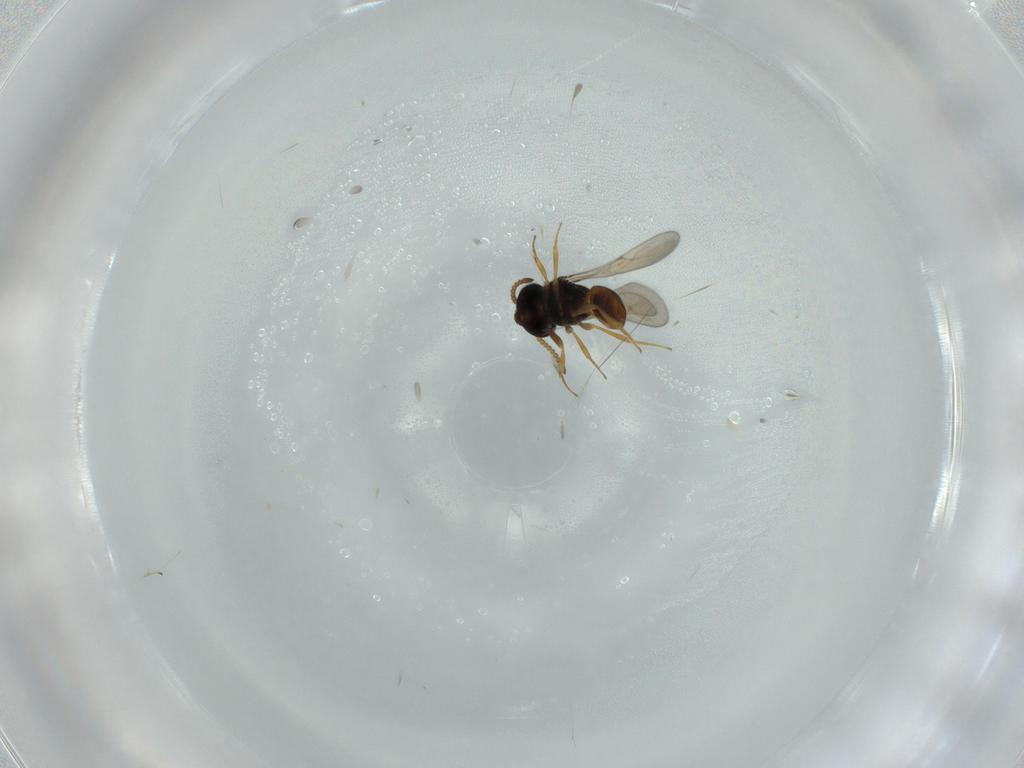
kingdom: Animalia
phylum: Arthropoda
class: Insecta
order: Hymenoptera
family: Scelionidae
